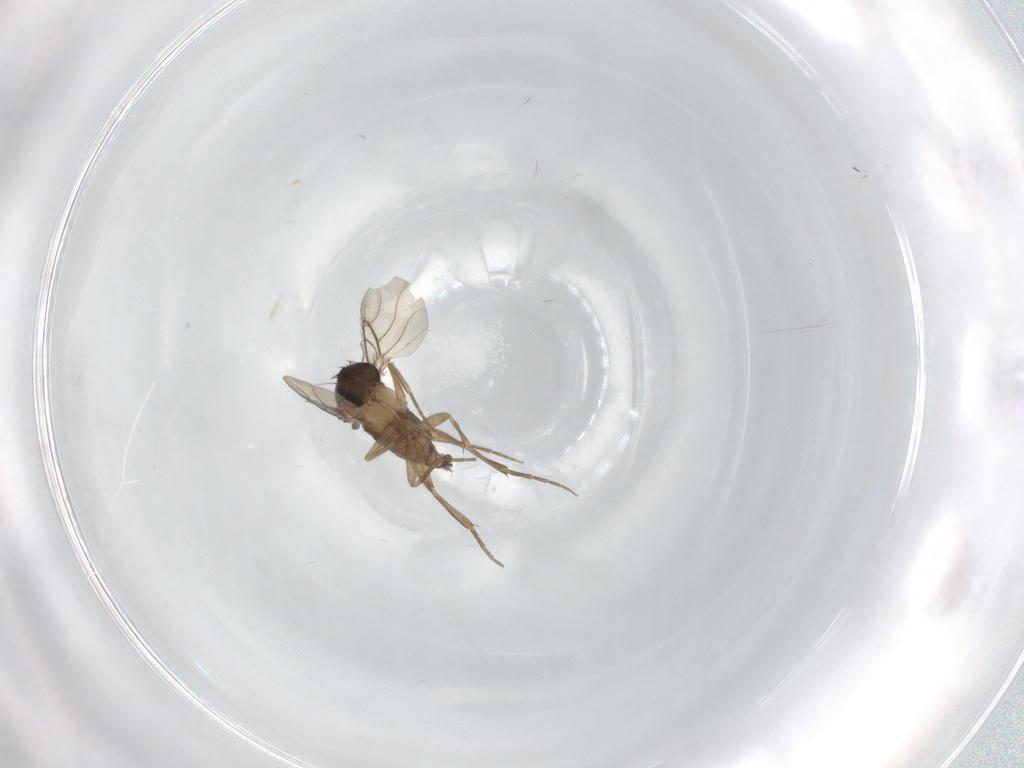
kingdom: Animalia
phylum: Arthropoda
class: Insecta
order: Diptera
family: Phoridae
